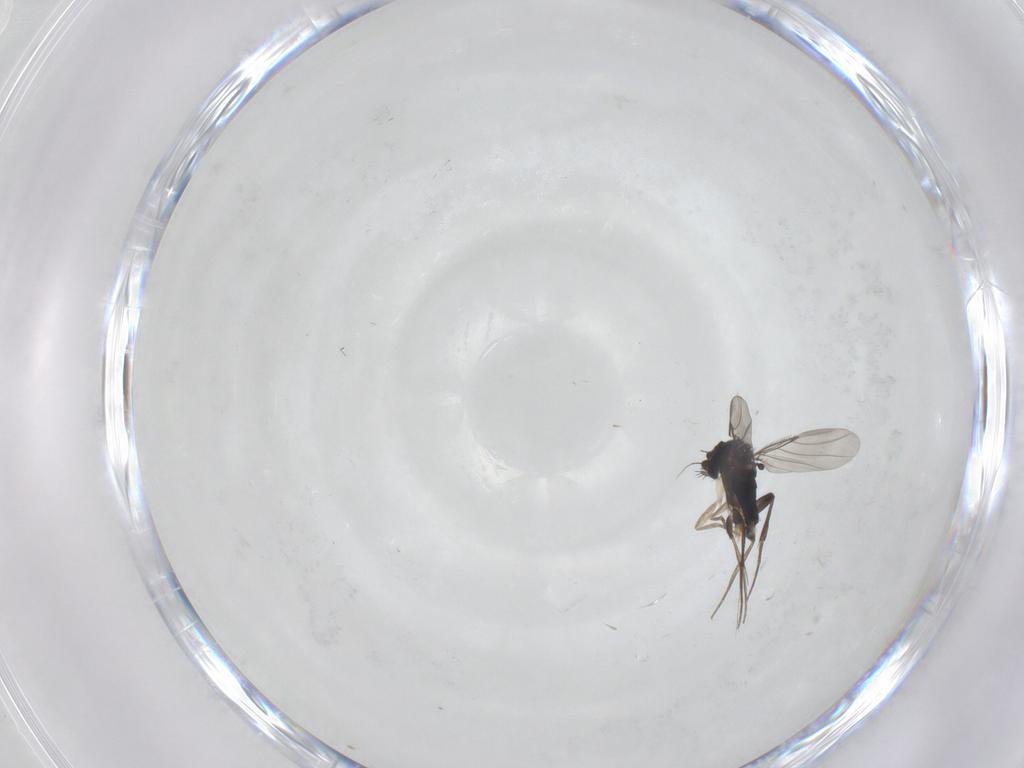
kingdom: Animalia
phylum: Arthropoda
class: Insecta
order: Diptera
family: Phoridae
